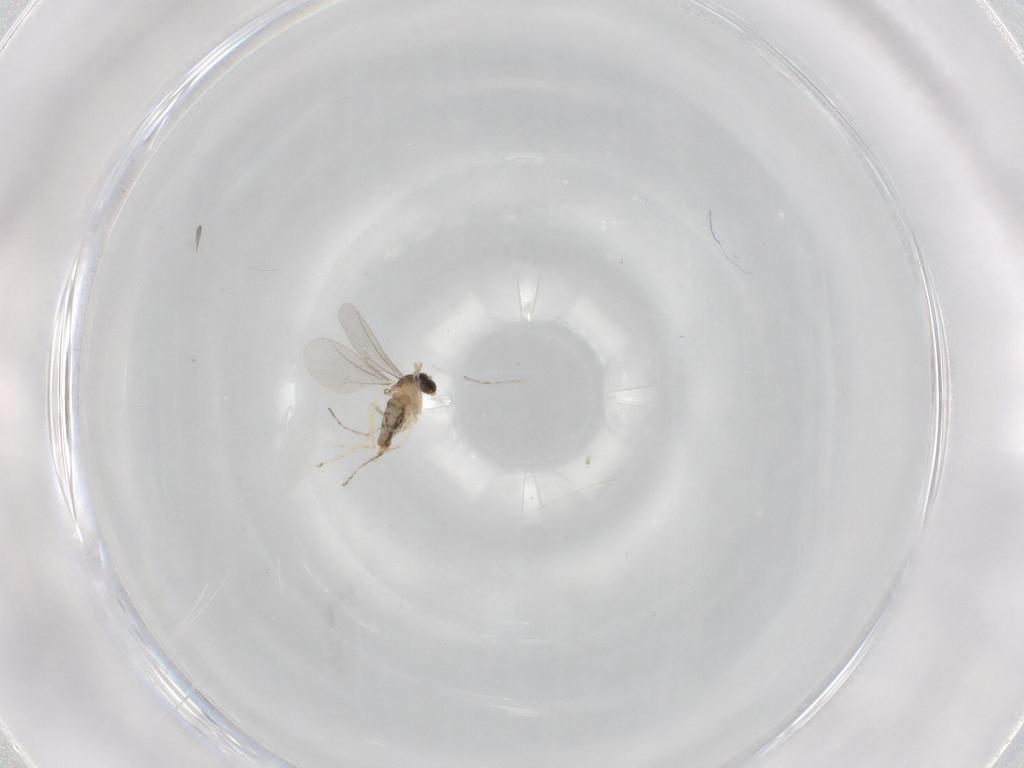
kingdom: Animalia
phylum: Arthropoda
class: Insecta
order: Diptera
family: Cecidomyiidae
